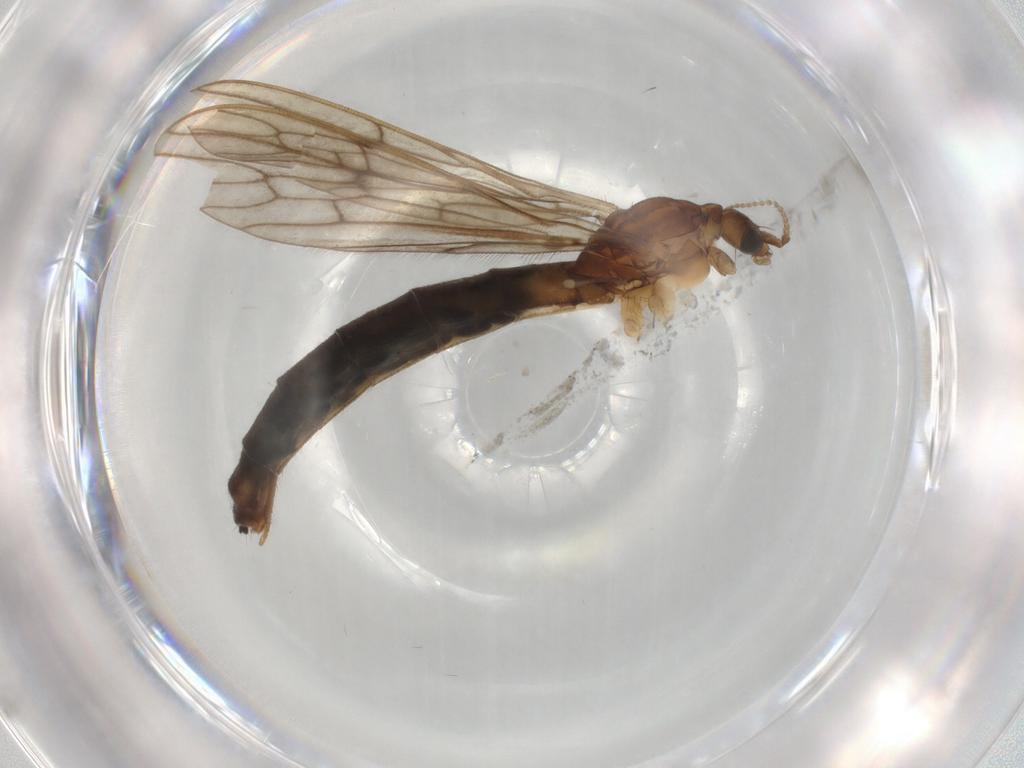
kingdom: Animalia
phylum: Arthropoda
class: Insecta
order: Diptera
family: Limoniidae
